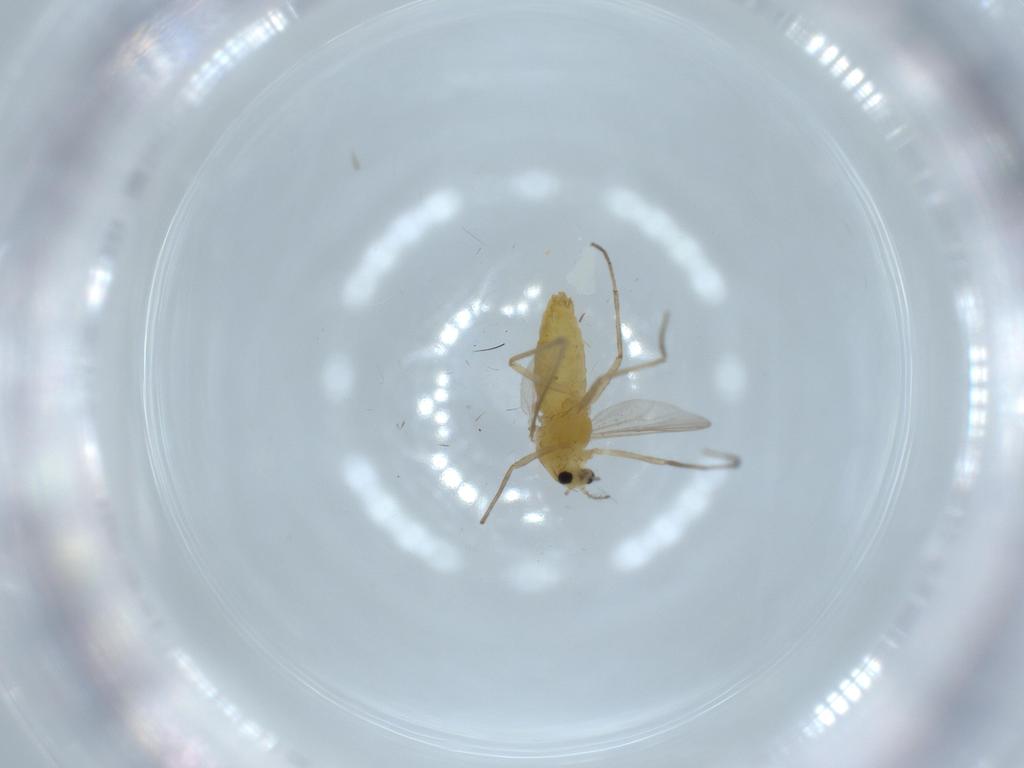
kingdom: Animalia
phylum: Arthropoda
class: Insecta
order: Diptera
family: Chironomidae
